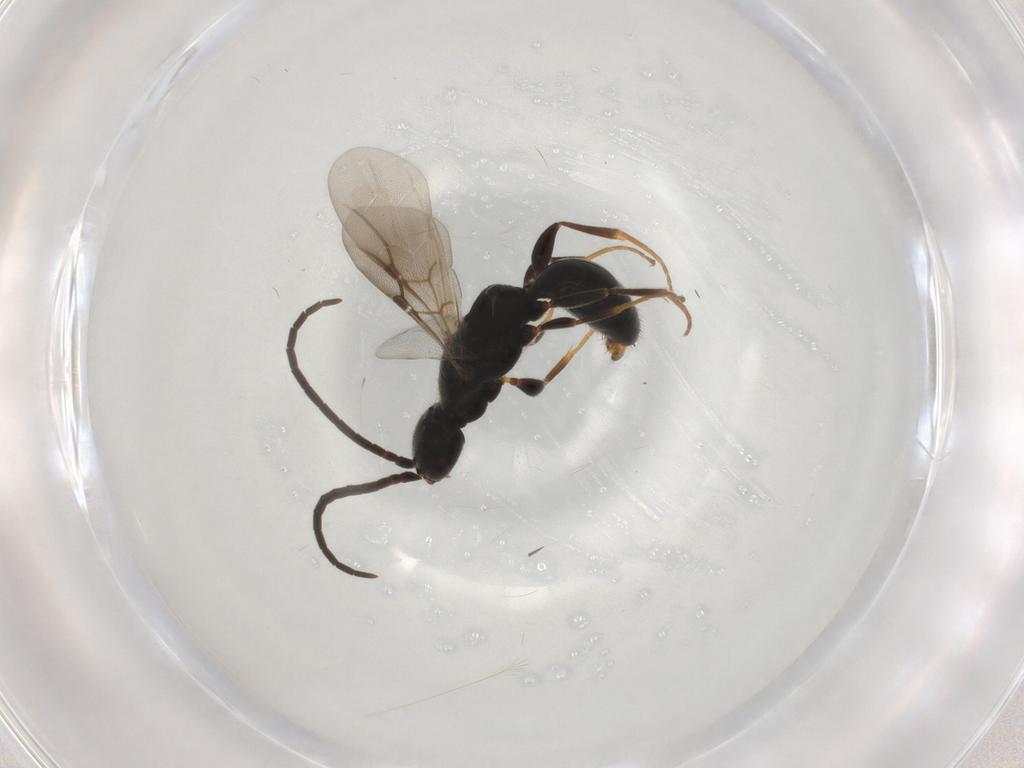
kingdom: Animalia
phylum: Arthropoda
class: Insecta
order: Hymenoptera
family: Bethylidae
